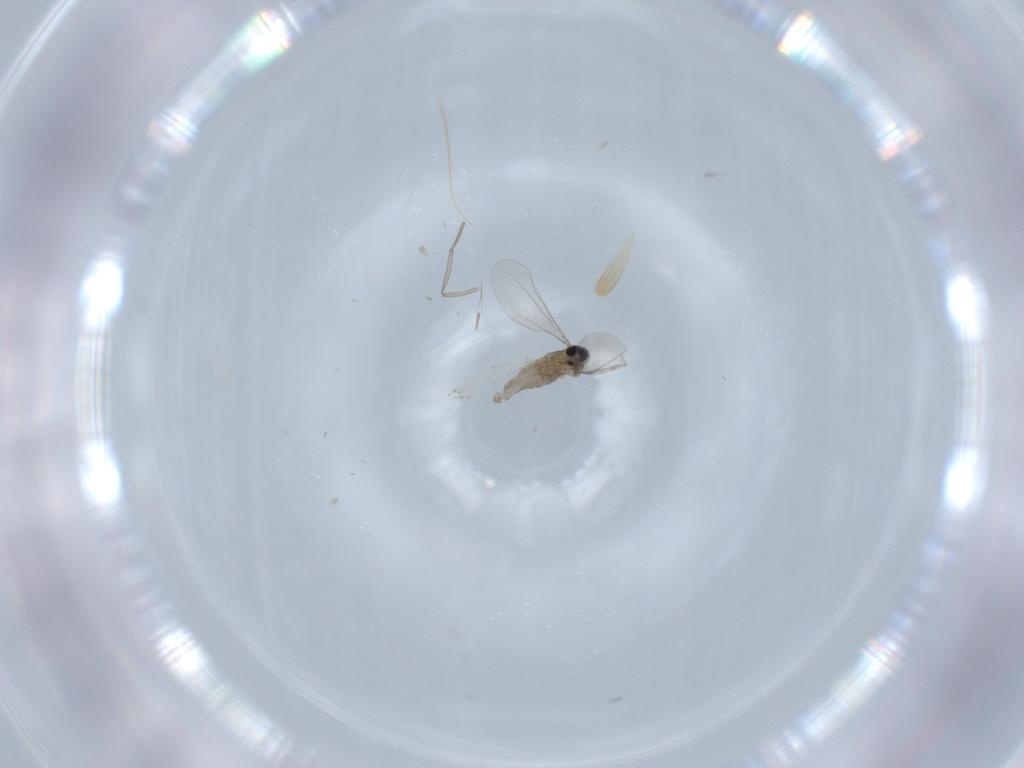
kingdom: Animalia
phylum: Arthropoda
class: Insecta
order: Diptera
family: Cecidomyiidae
